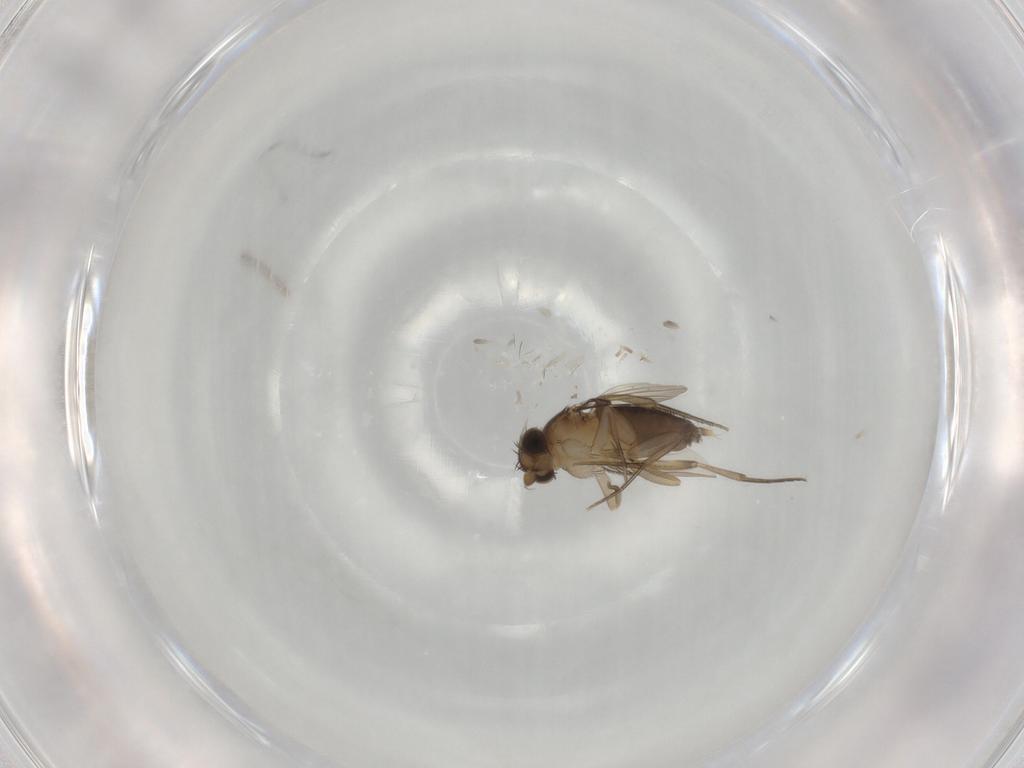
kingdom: Animalia
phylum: Arthropoda
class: Insecta
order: Diptera
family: Phoridae
